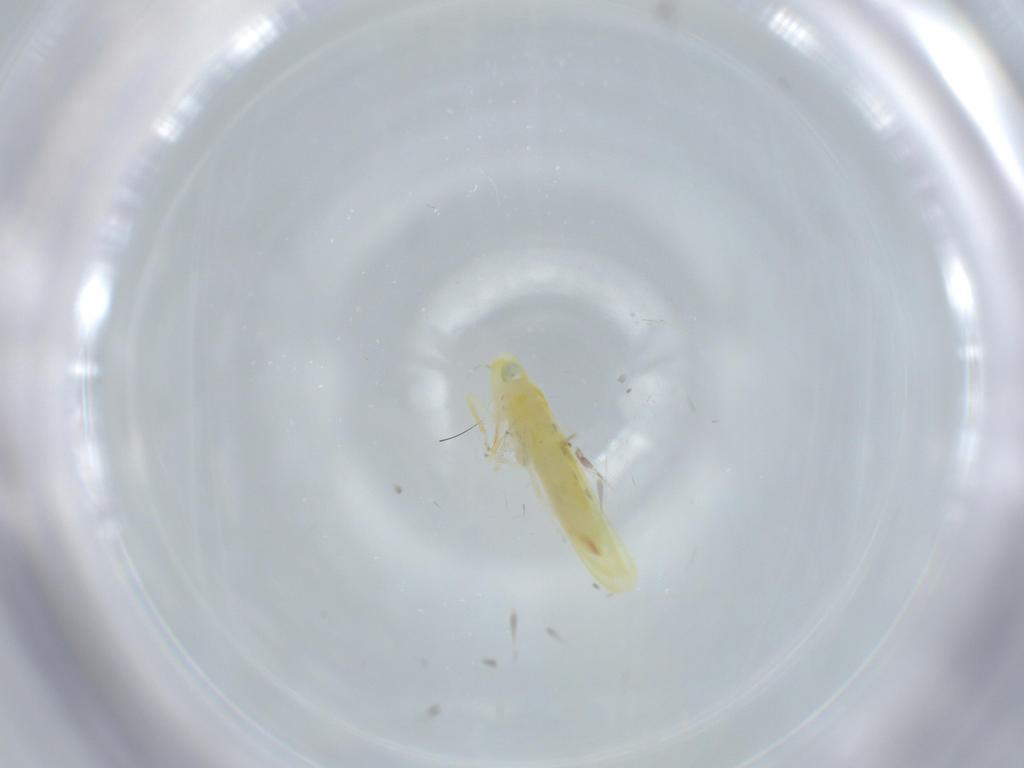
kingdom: Animalia
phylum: Arthropoda
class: Insecta
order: Hemiptera
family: Cicadellidae
